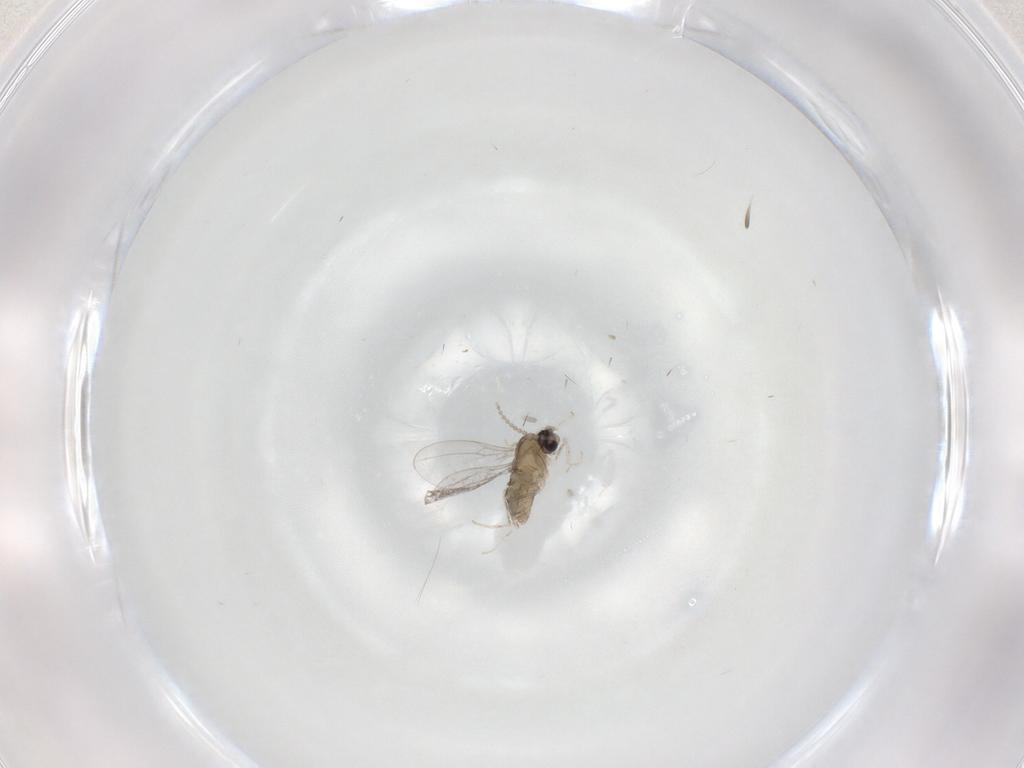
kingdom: Animalia
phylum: Arthropoda
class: Insecta
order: Diptera
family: Cecidomyiidae
